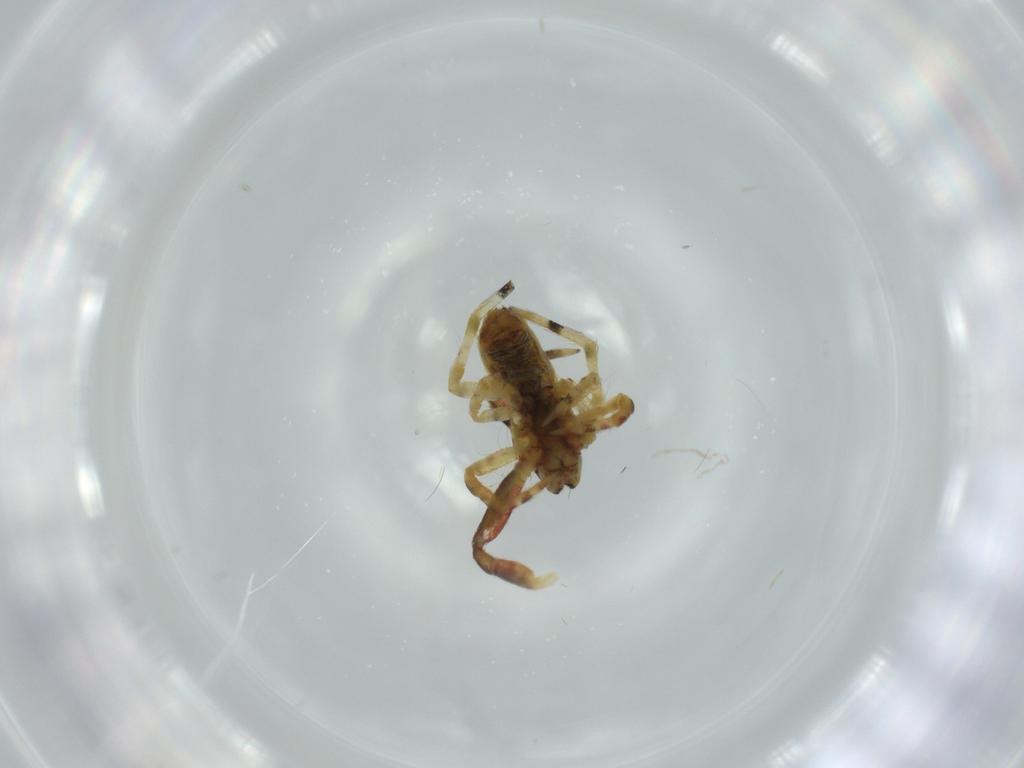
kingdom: Animalia
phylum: Arthropoda
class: Arachnida
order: Araneae
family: Uloboridae
